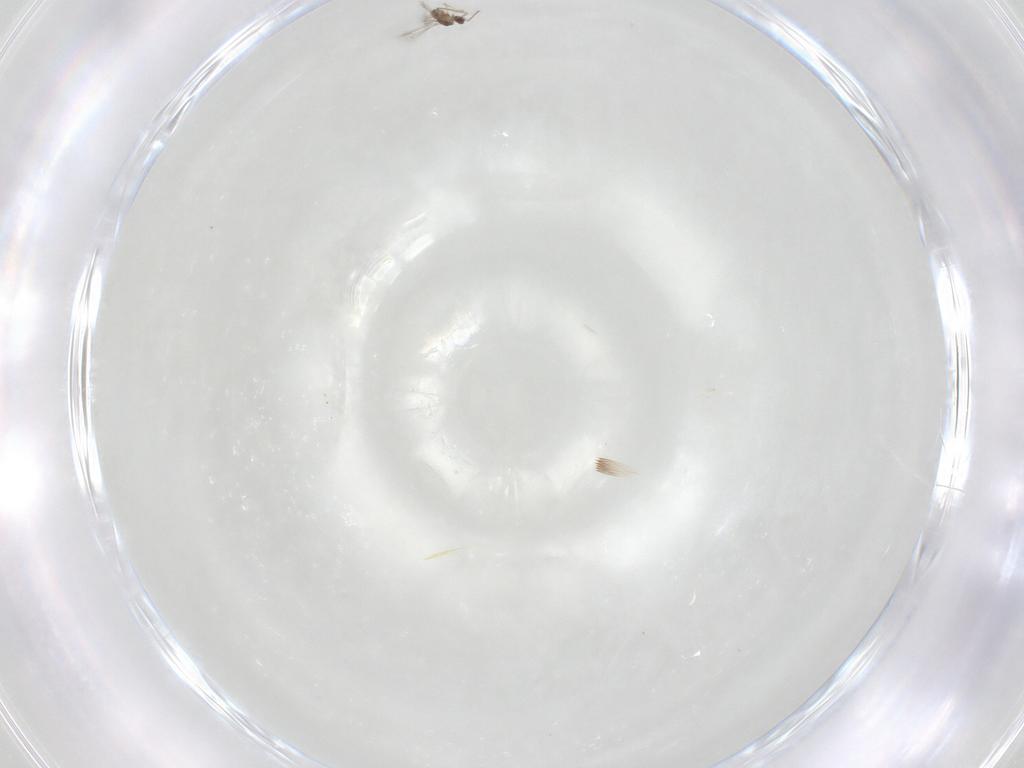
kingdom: Animalia
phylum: Arthropoda
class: Insecta
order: Hymenoptera
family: Mymaridae
